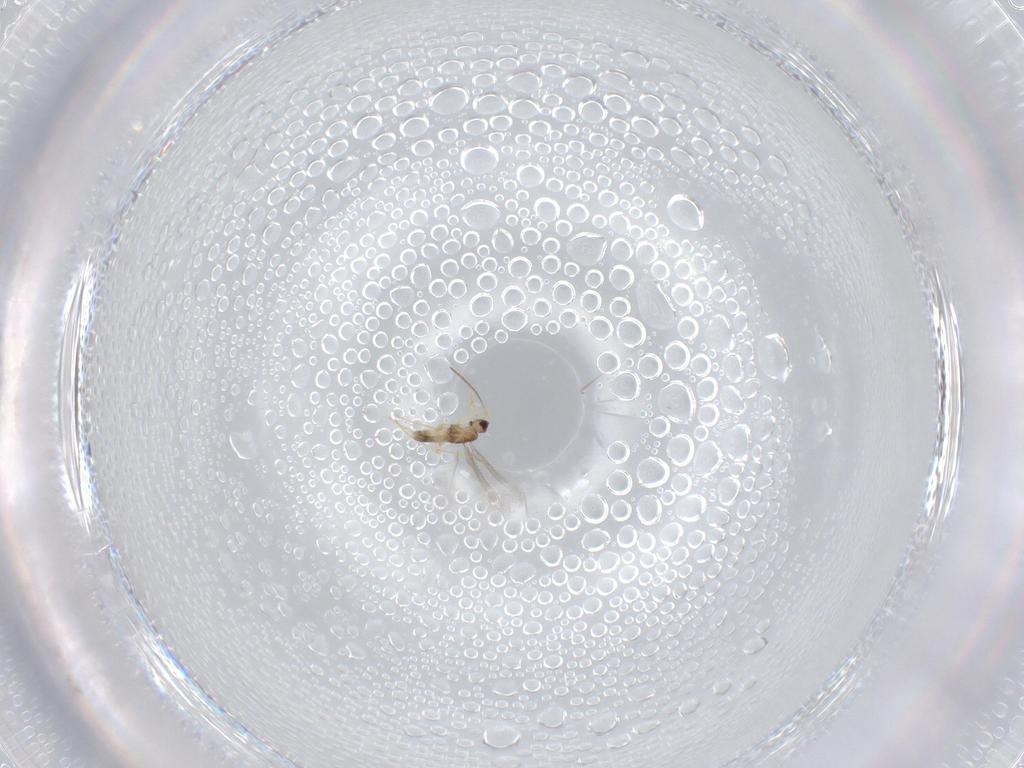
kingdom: Animalia
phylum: Arthropoda
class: Insecta
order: Hymenoptera
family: Mymaridae
